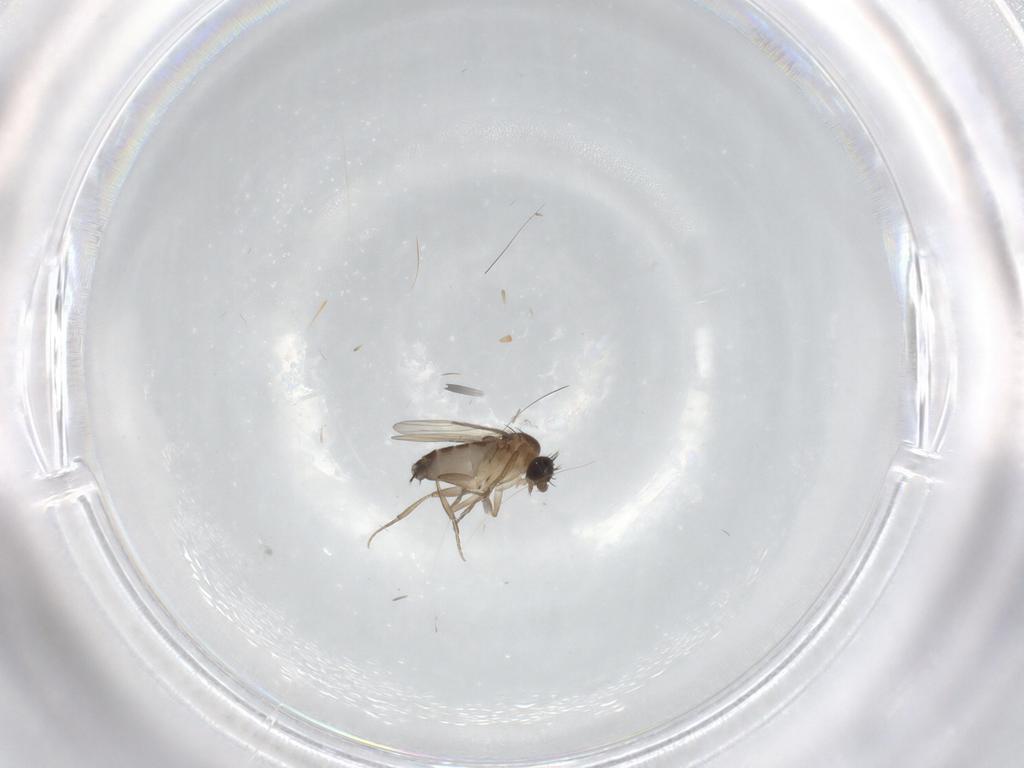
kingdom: Animalia
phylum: Arthropoda
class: Insecta
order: Diptera
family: Phoridae
